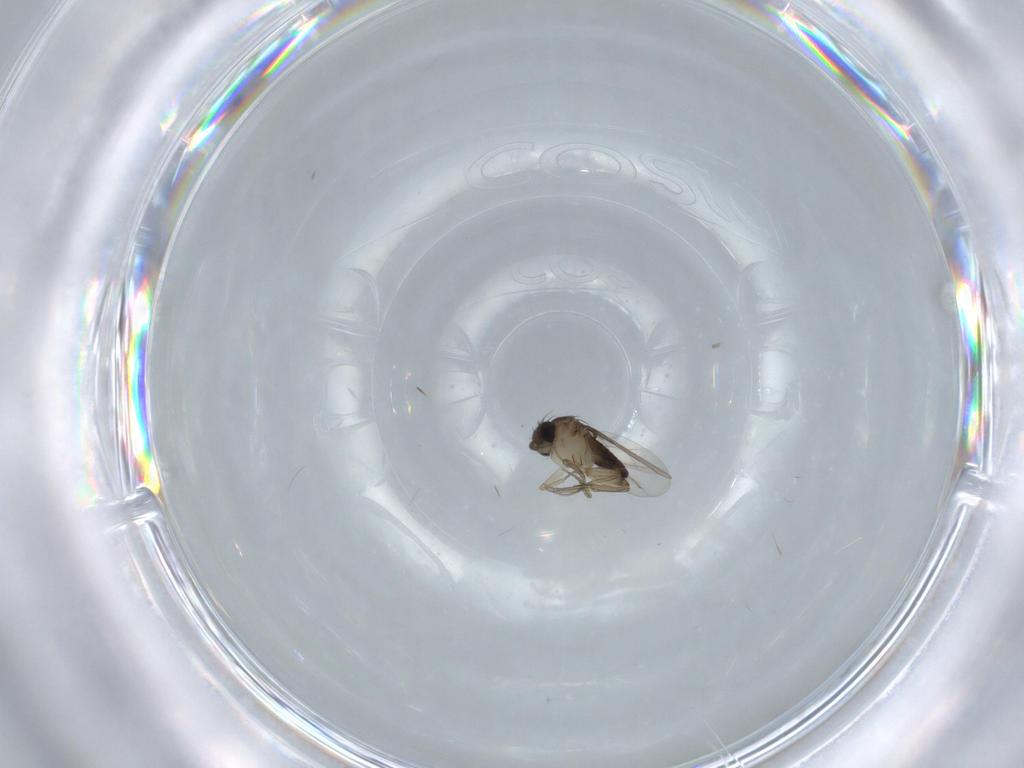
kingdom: Animalia
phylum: Arthropoda
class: Insecta
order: Diptera
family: Phoridae
